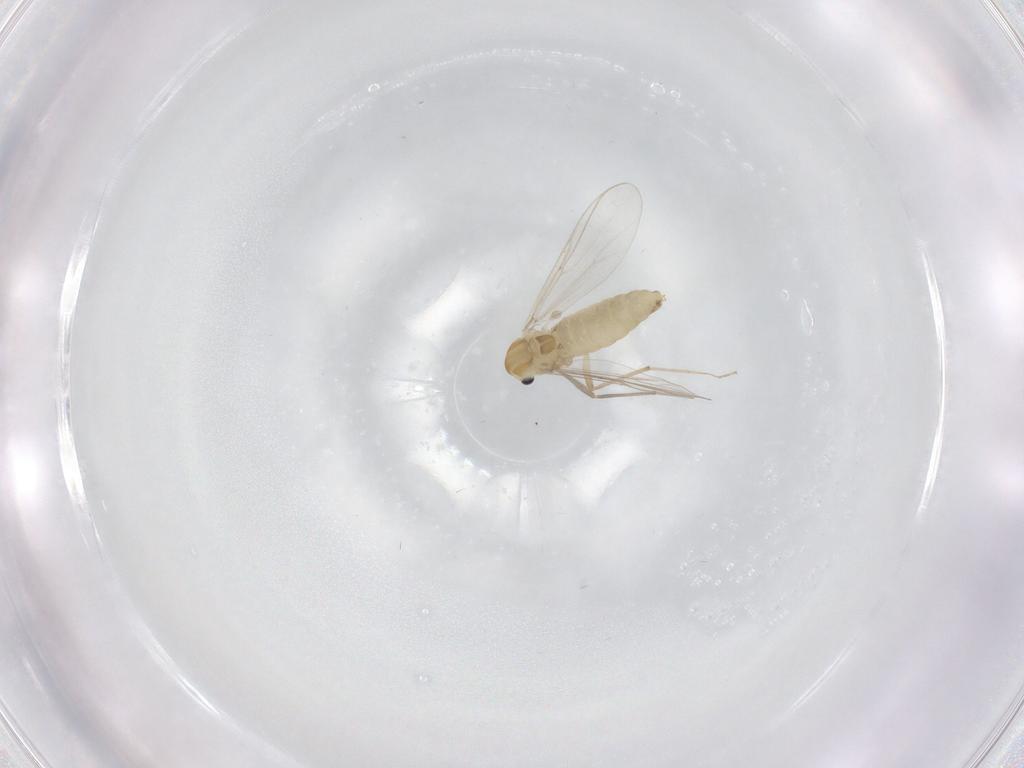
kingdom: Animalia
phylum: Arthropoda
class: Insecta
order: Diptera
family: Chironomidae
